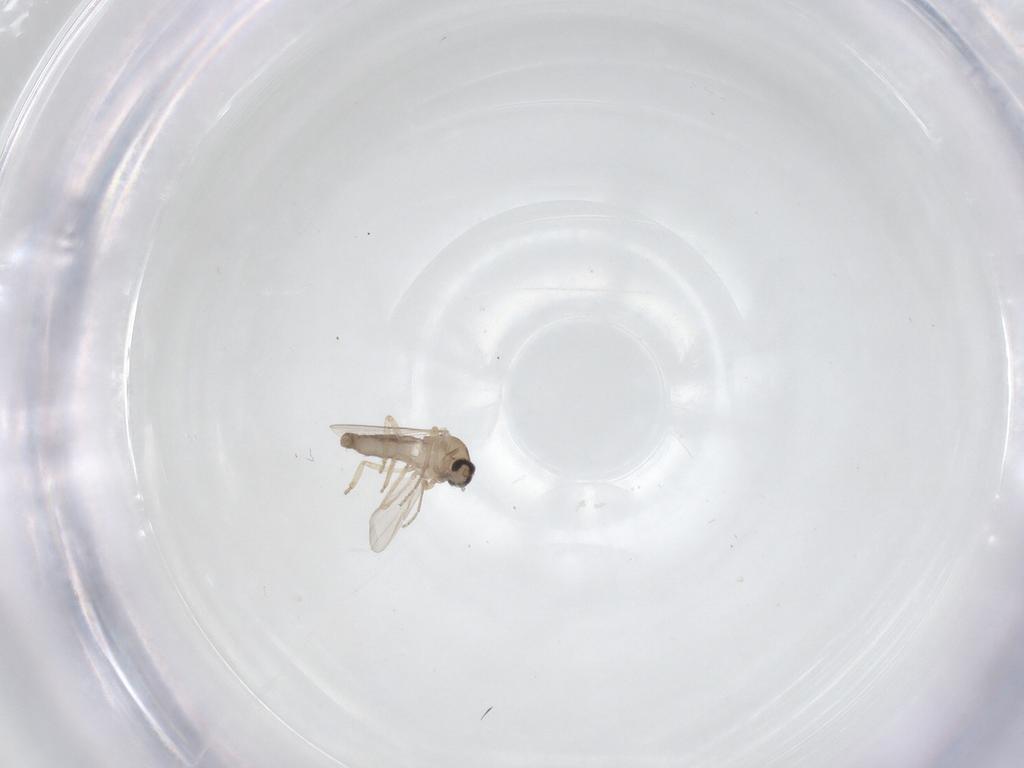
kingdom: Animalia
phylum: Arthropoda
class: Insecta
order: Diptera
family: Ceratopogonidae
